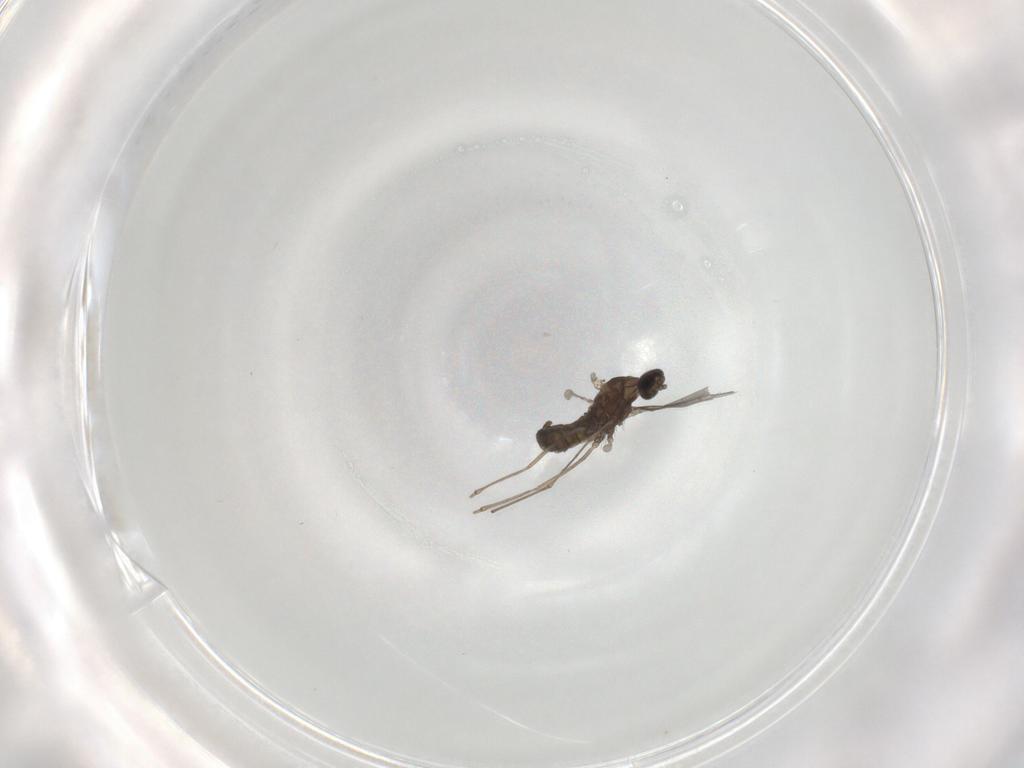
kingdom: Animalia
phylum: Arthropoda
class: Insecta
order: Diptera
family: Cecidomyiidae
